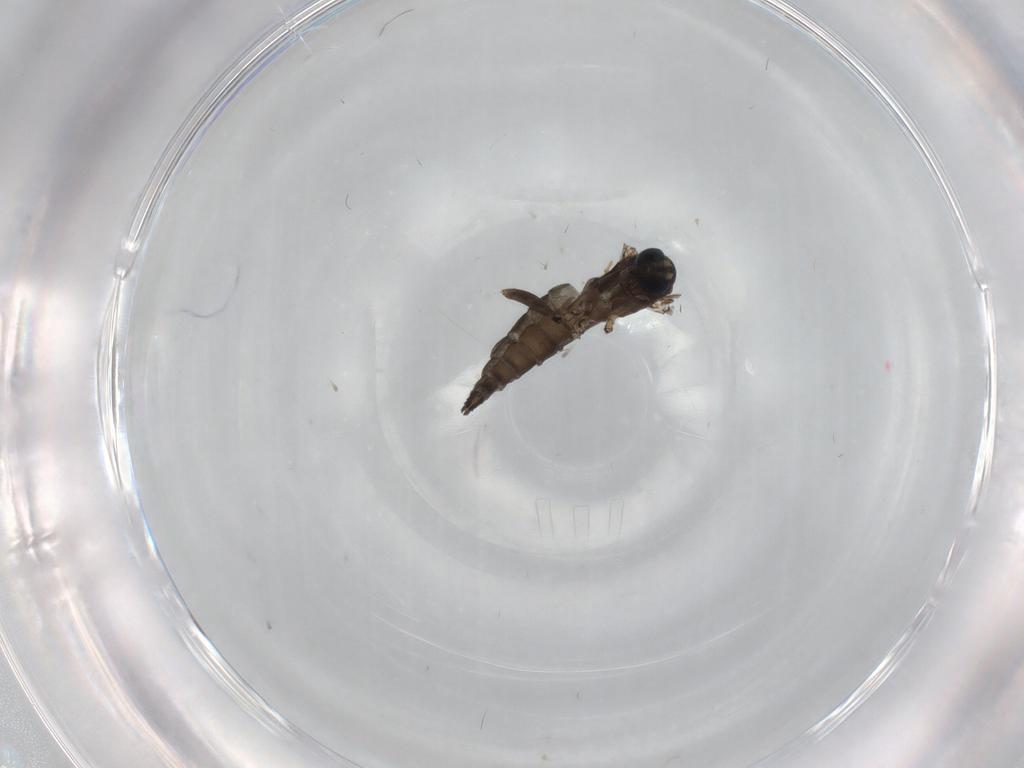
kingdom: Animalia
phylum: Arthropoda
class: Insecta
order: Diptera
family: Sciaridae
